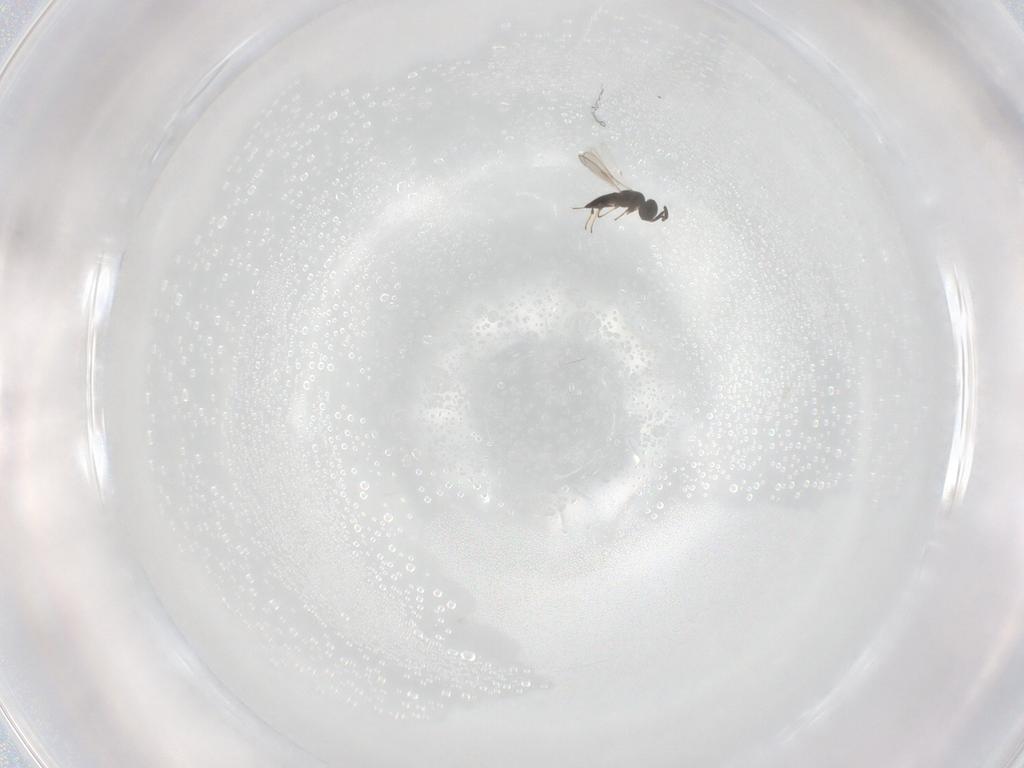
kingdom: Animalia
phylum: Arthropoda
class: Insecta
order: Hymenoptera
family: Scelionidae
